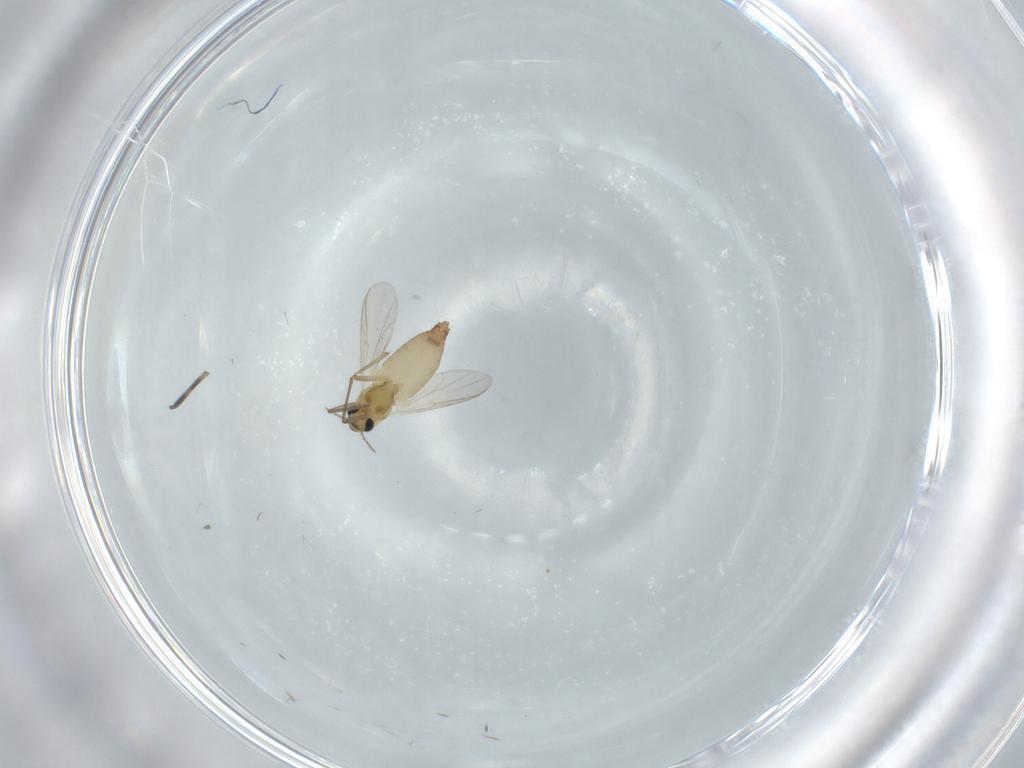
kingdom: Animalia
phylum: Arthropoda
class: Insecta
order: Diptera
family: Chironomidae
